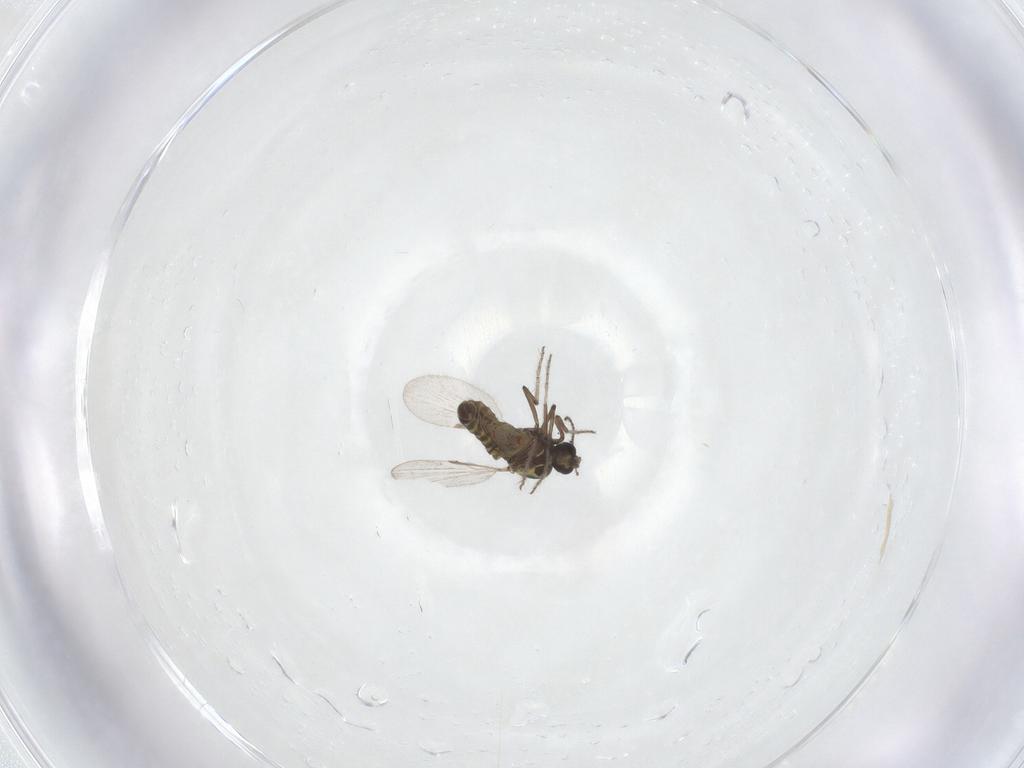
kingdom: Animalia
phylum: Arthropoda
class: Insecta
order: Diptera
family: Ceratopogonidae
